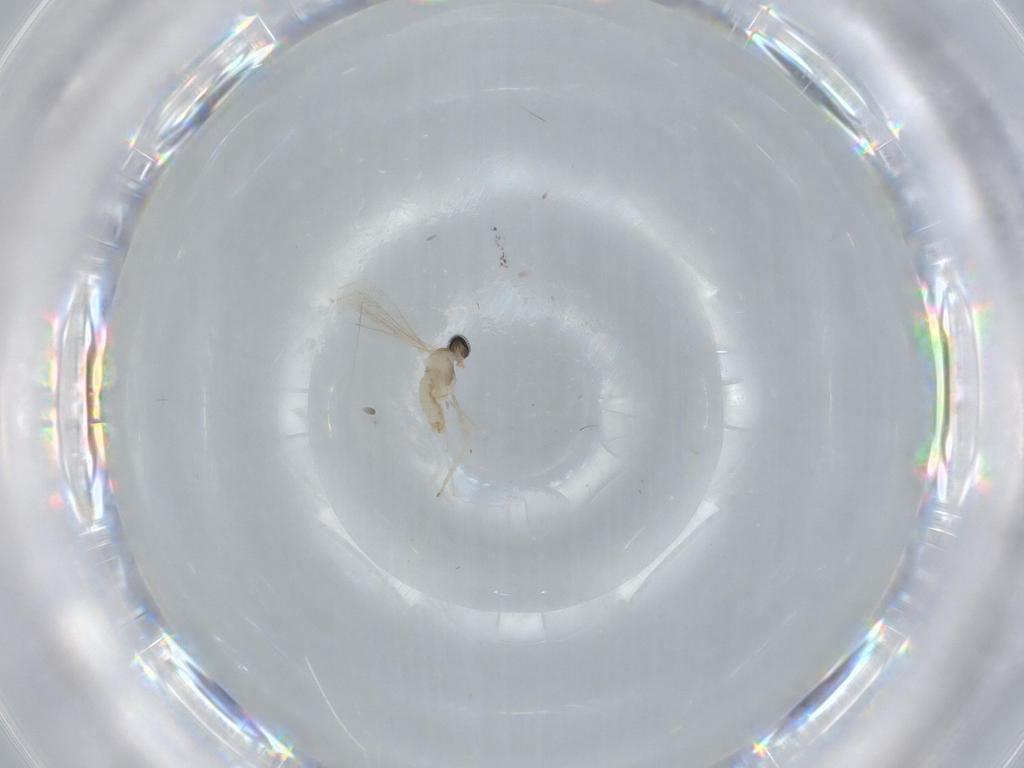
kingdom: Animalia
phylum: Arthropoda
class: Insecta
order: Diptera
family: Cecidomyiidae
